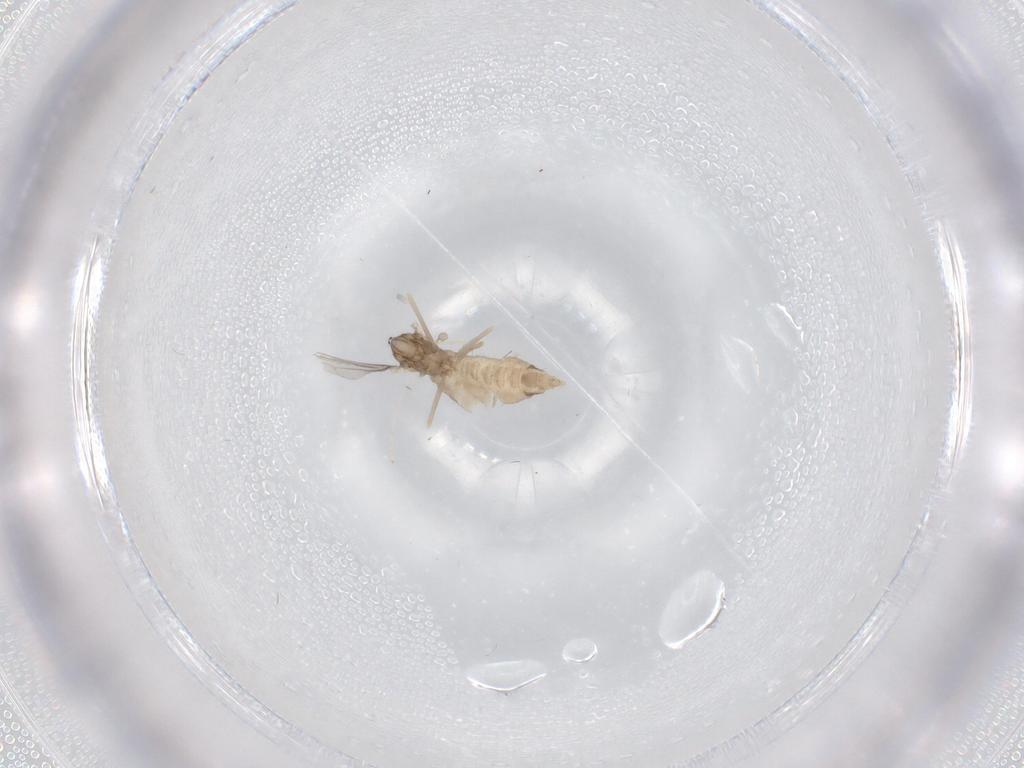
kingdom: Animalia
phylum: Arthropoda
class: Insecta
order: Diptera
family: Cecidomyiidae
